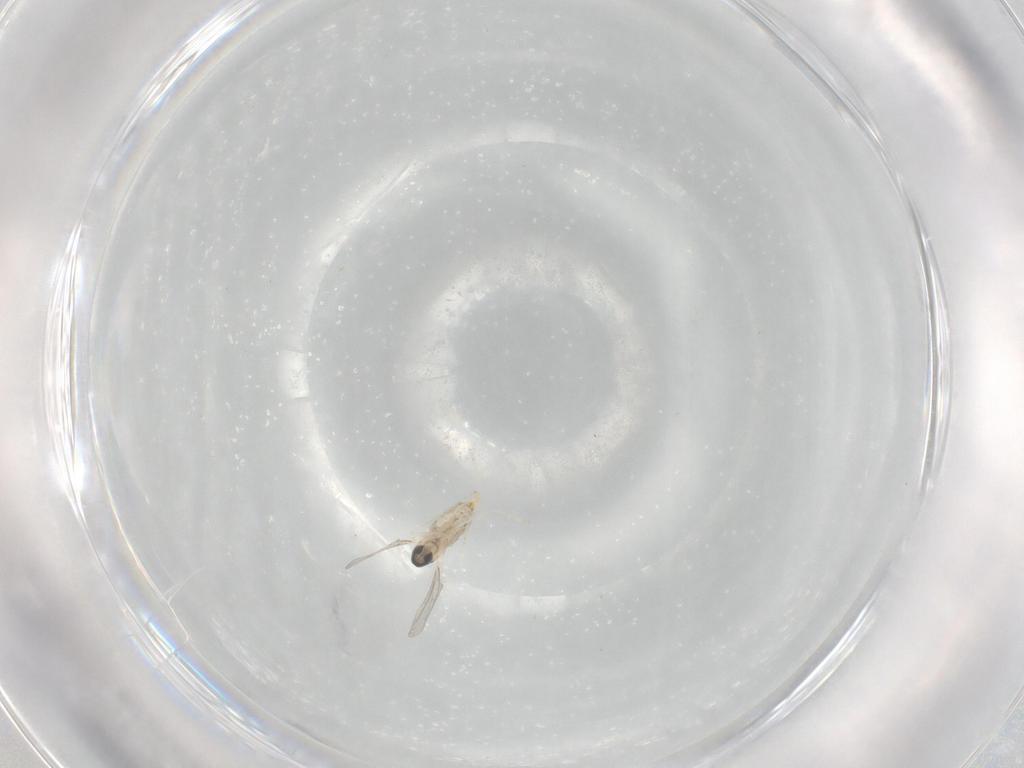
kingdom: Animalia
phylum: Arthropoda
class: Insecta
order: Diptera
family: Cecidomyiidae
